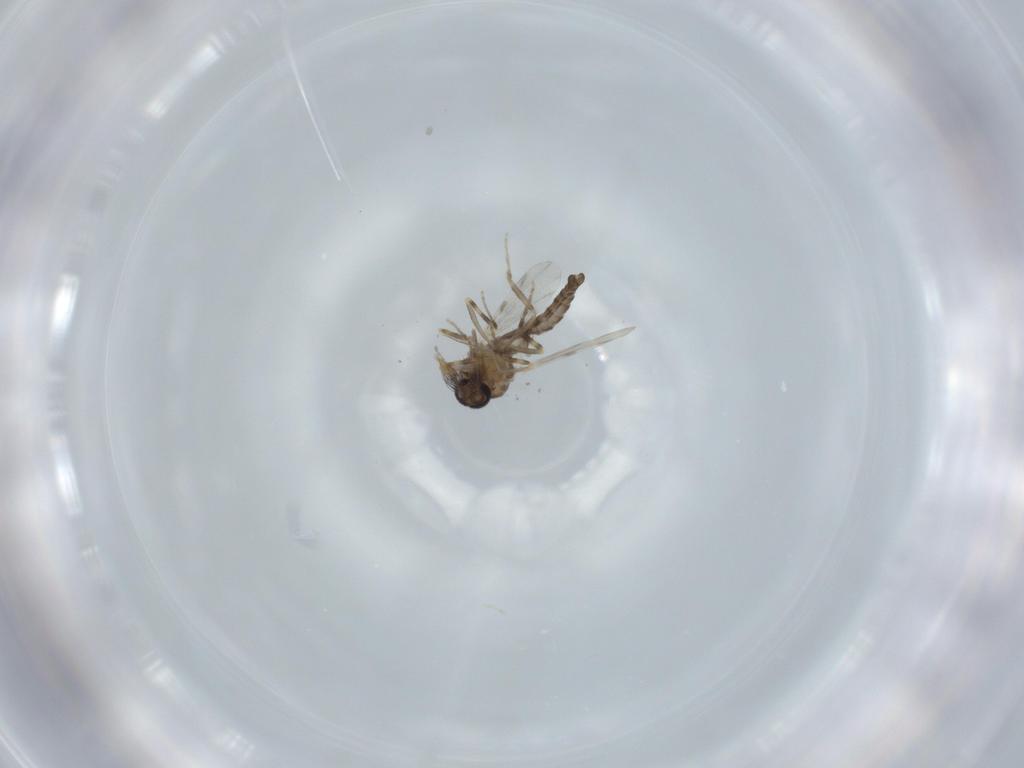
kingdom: Animalia
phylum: Arthropoda
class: Insecta
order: Diptera
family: Ceratopogonidae
